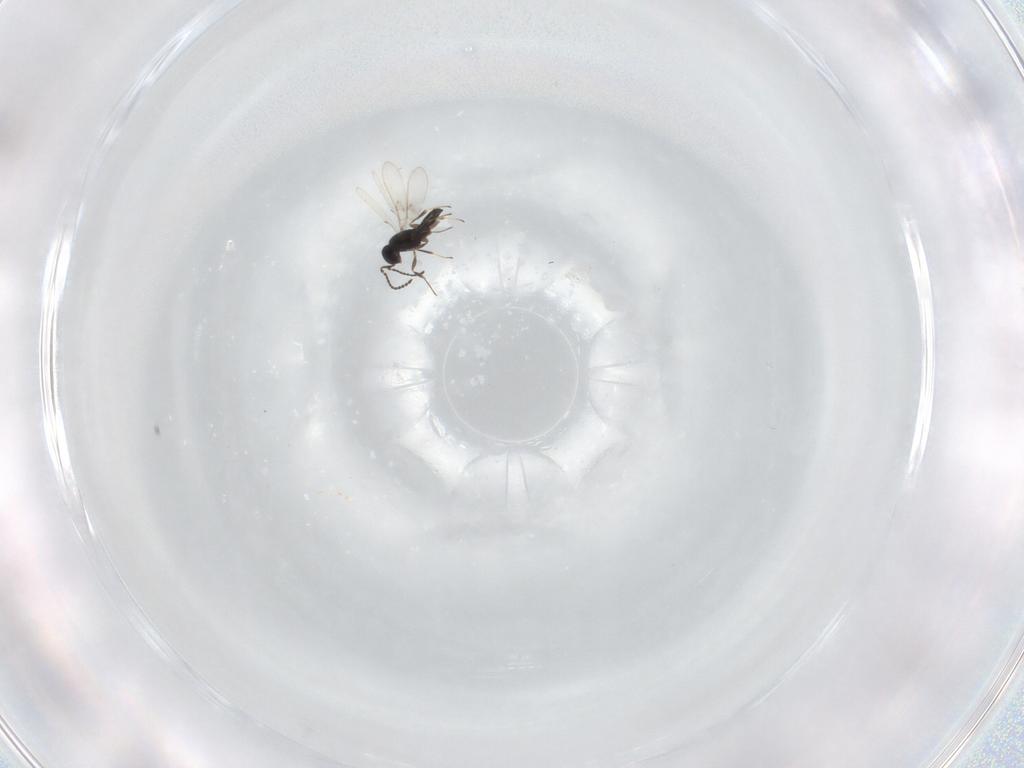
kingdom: Animalia
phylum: Arthropoda
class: Insecta
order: Hymenoptera
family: Scelionidae
